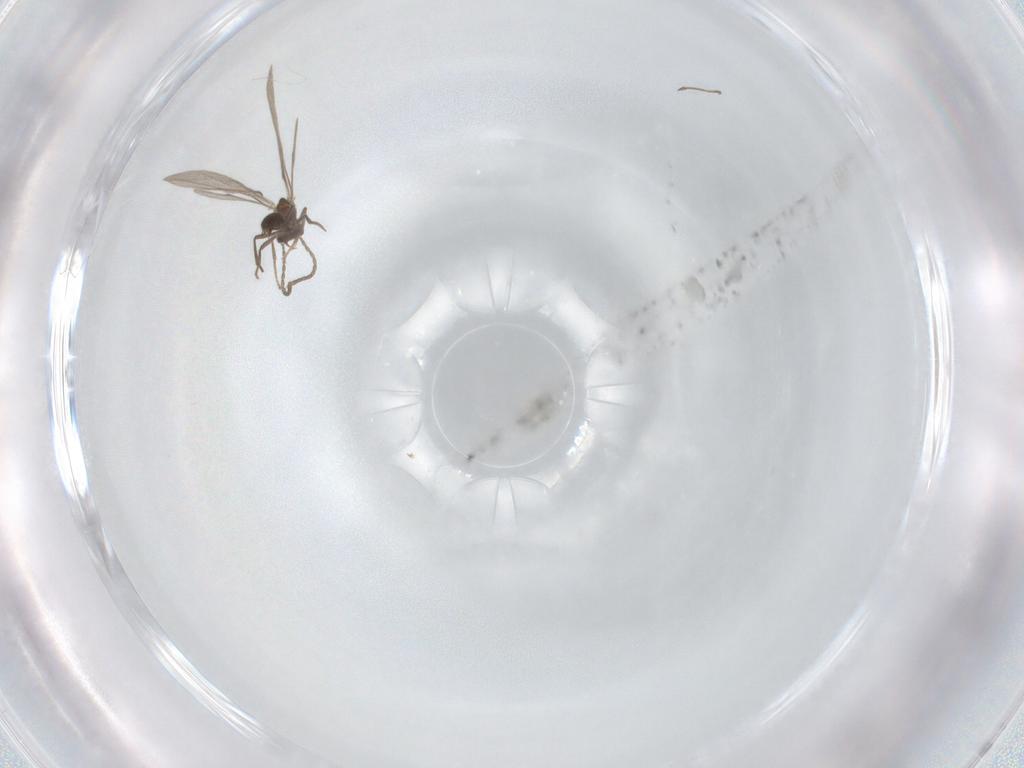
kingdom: Animalia
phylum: Arthropoda
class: Insecta
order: Hymenoptera
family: Formicidae
